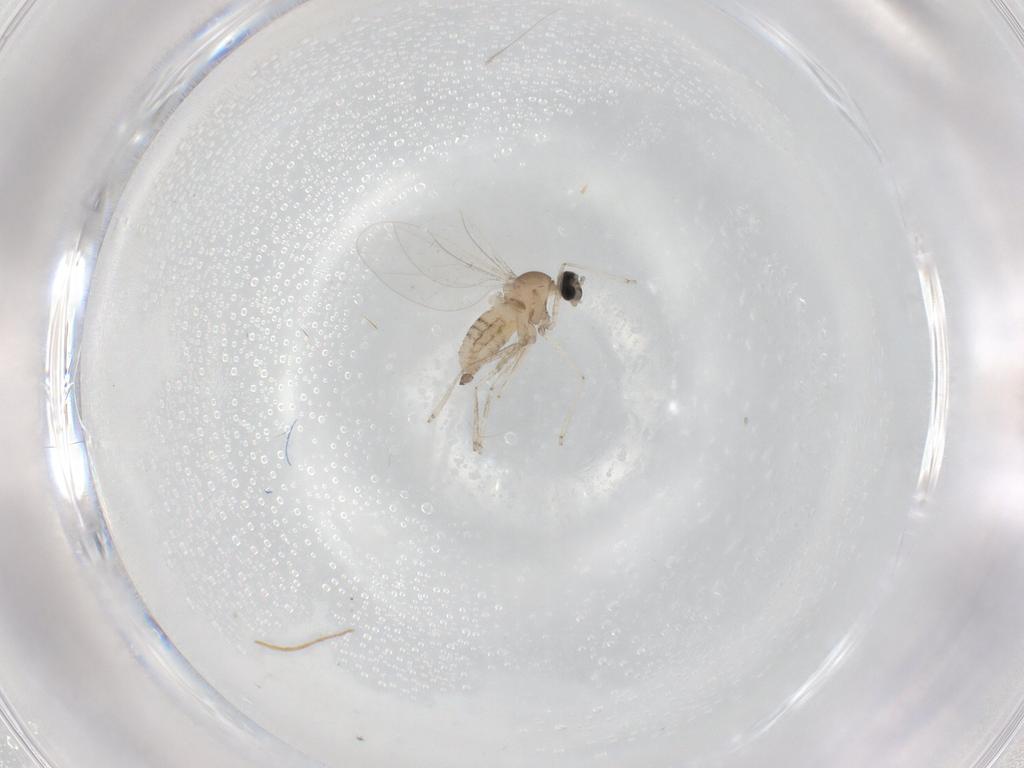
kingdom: Animalia
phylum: Arthropoda
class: Insecta
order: Diptera
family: Cecidomyiidae
